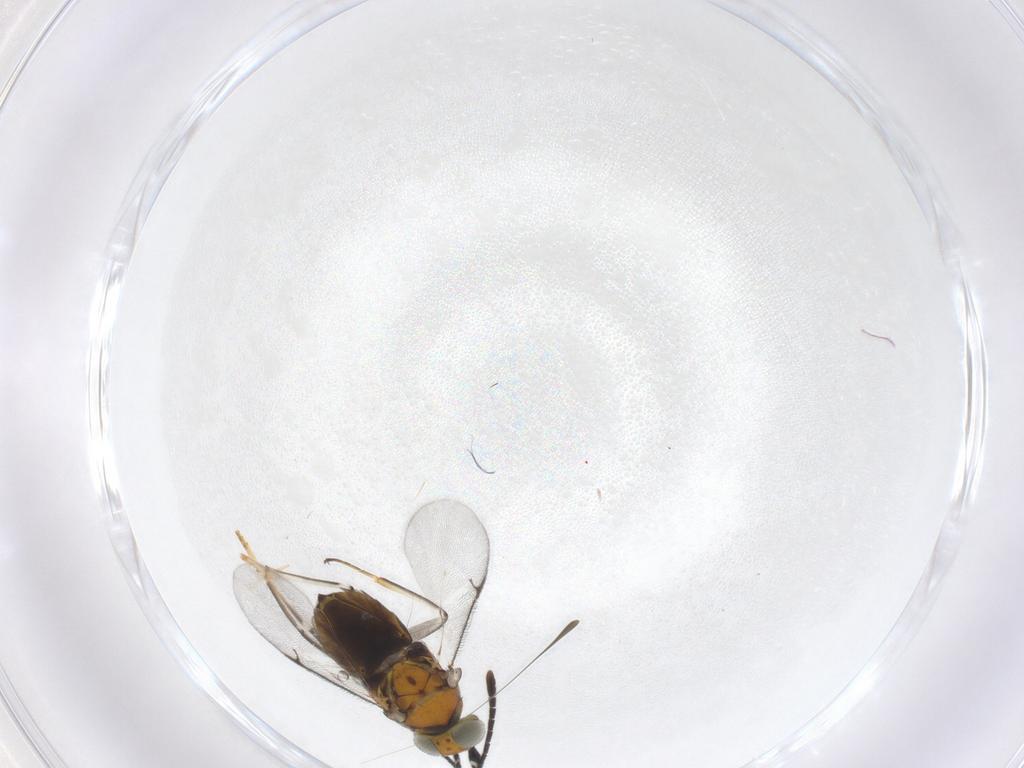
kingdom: Animalia
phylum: Arthropoda
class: Insecta
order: Hymenoptera
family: Encyrtidae
